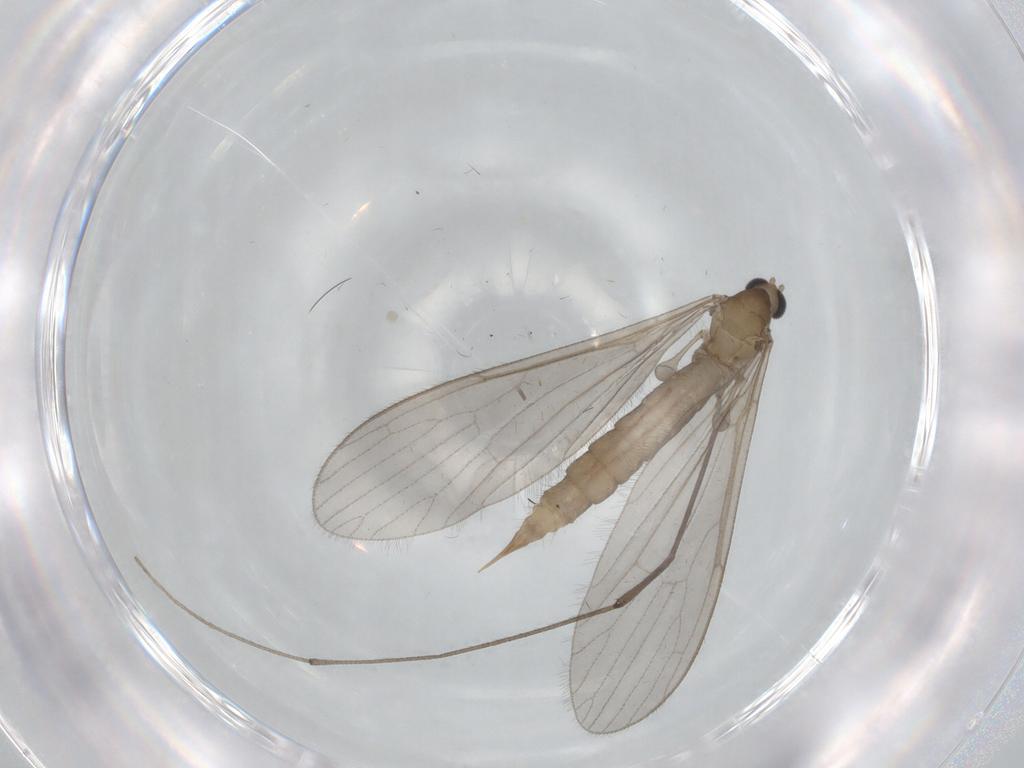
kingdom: Animalia
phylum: Arthropoda
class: Insecta
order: Diptera
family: Limoniidae
